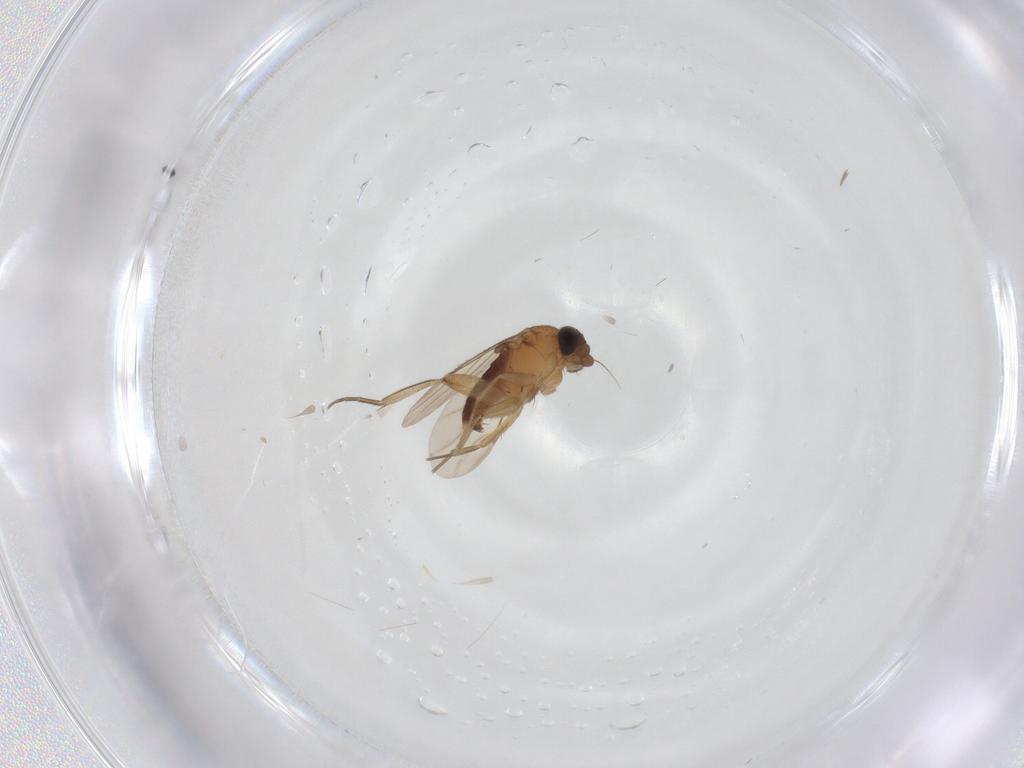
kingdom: Animalia
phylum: Arthropoda
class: Insecta
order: Diptera
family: Phoridae
